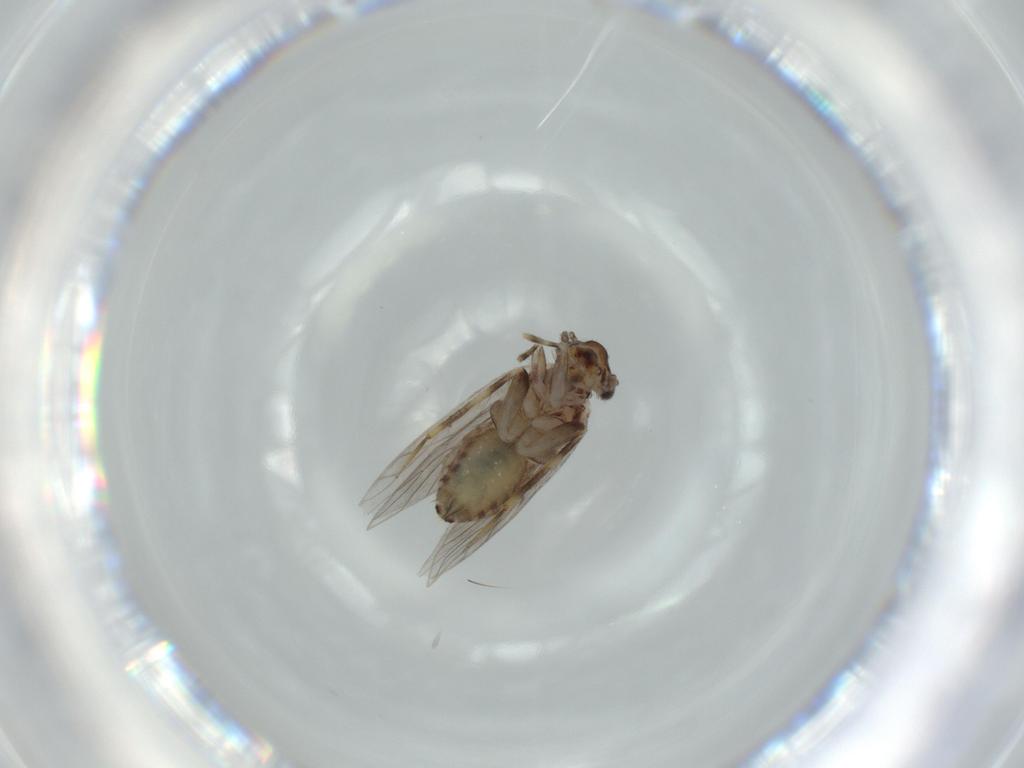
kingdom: Animalia
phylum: Arthropoda
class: Insecta
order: Psocodea
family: Lepidopsocidae
